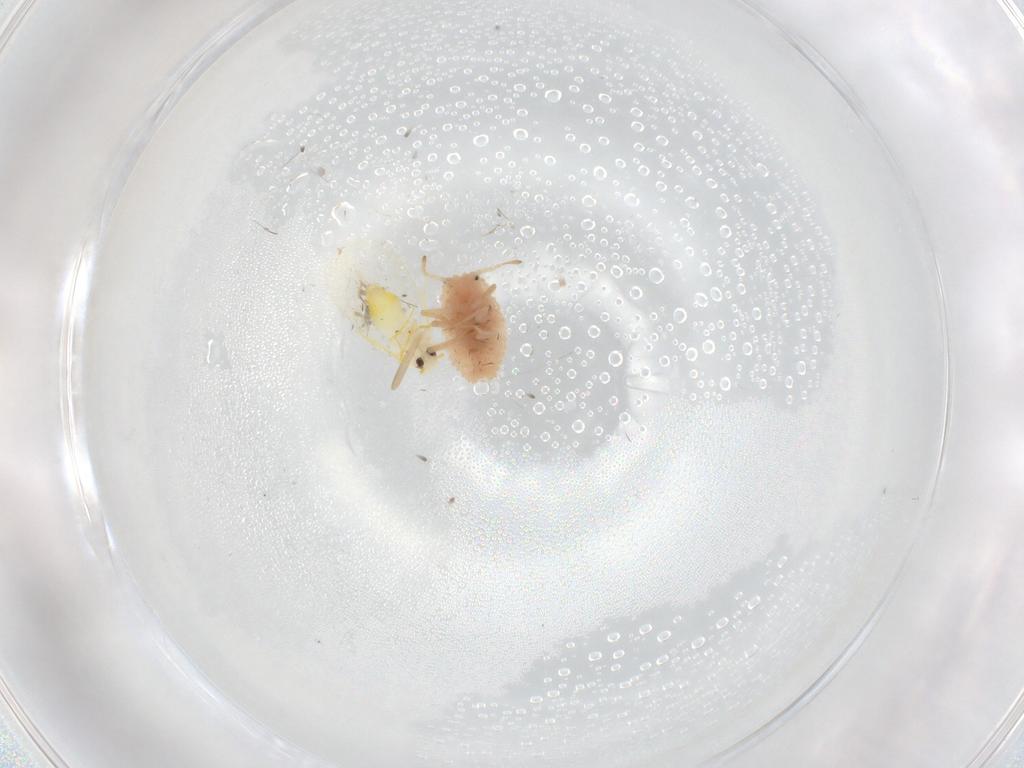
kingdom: Animalia
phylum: Arthropoda
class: Insecta
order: Hemiptera
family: Aleyrodidae
